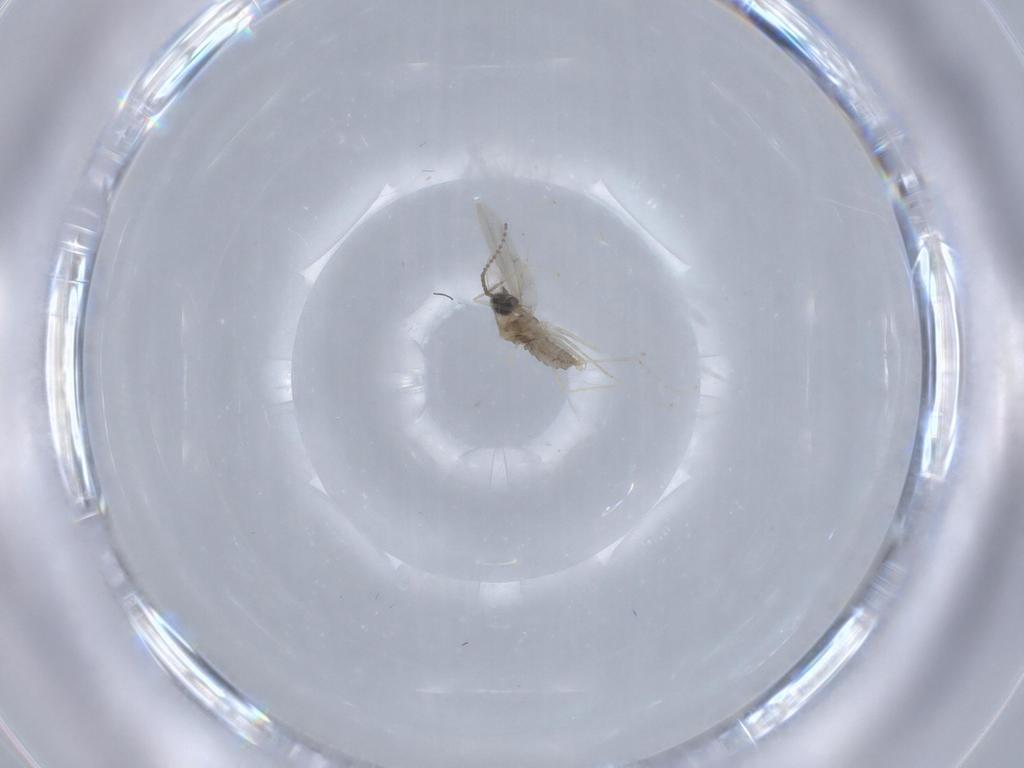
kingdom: Animalia
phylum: Arthropoda
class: Insecta
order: Diptera
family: Cecidomyiidae
